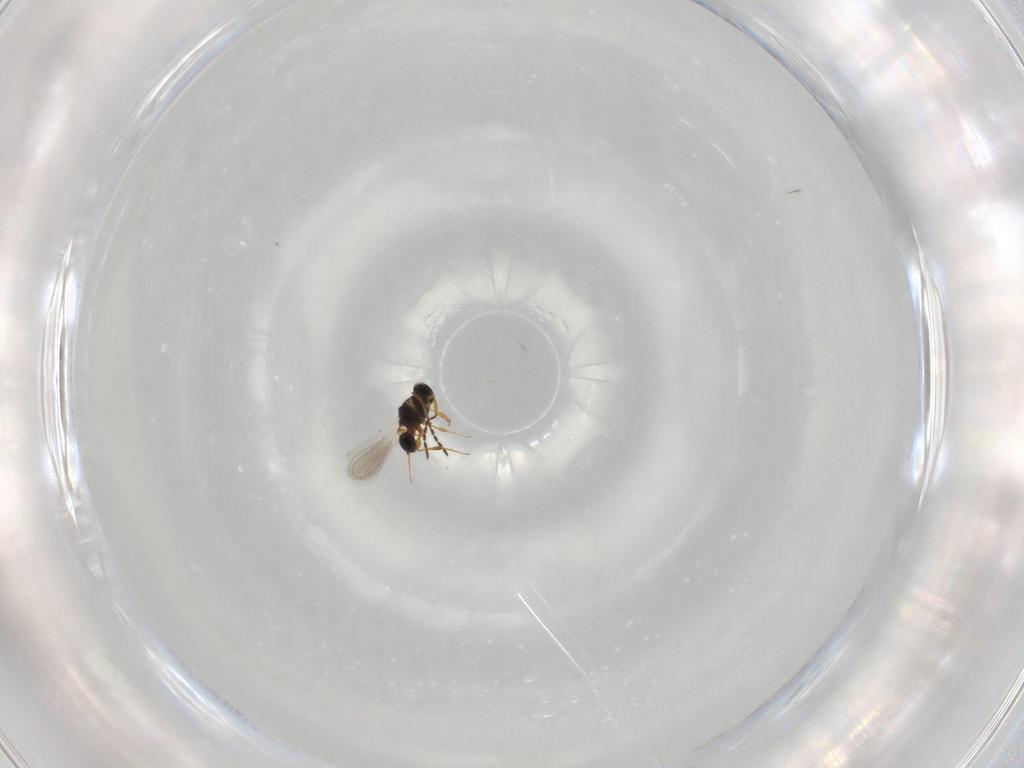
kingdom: Animalia
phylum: Arthropoda
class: Insecta
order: Hymenoptera
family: Platygastridae
